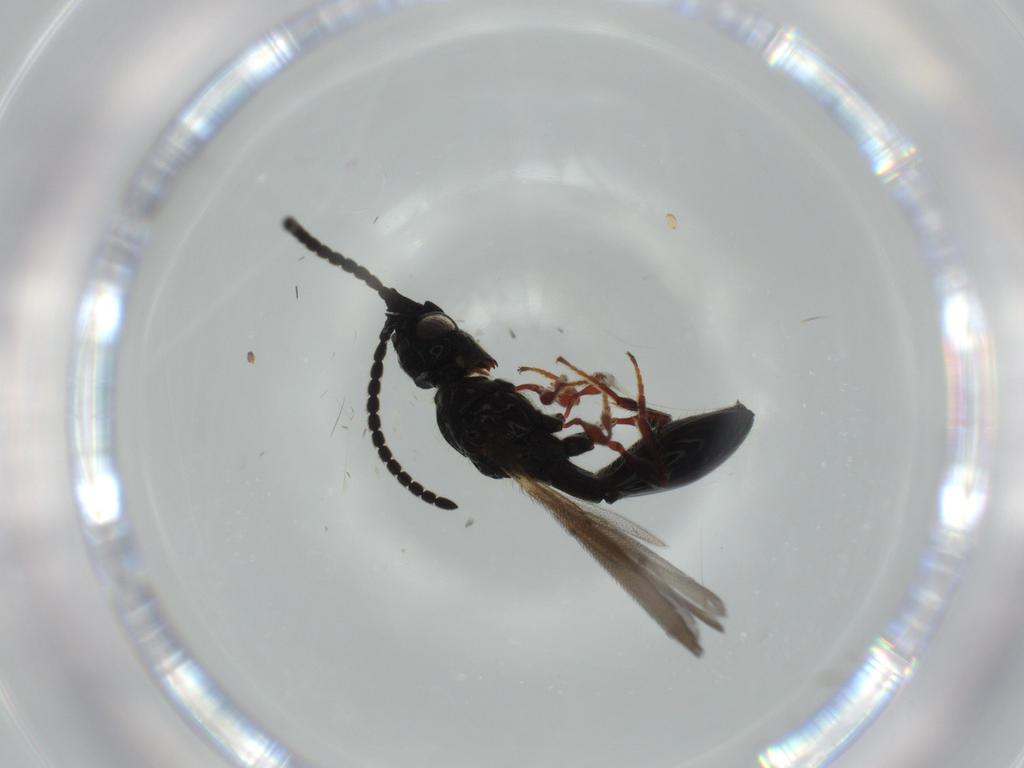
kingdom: Animalia
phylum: Arthropoda
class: Insecta
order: Hymenoptera
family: Diapriidae
